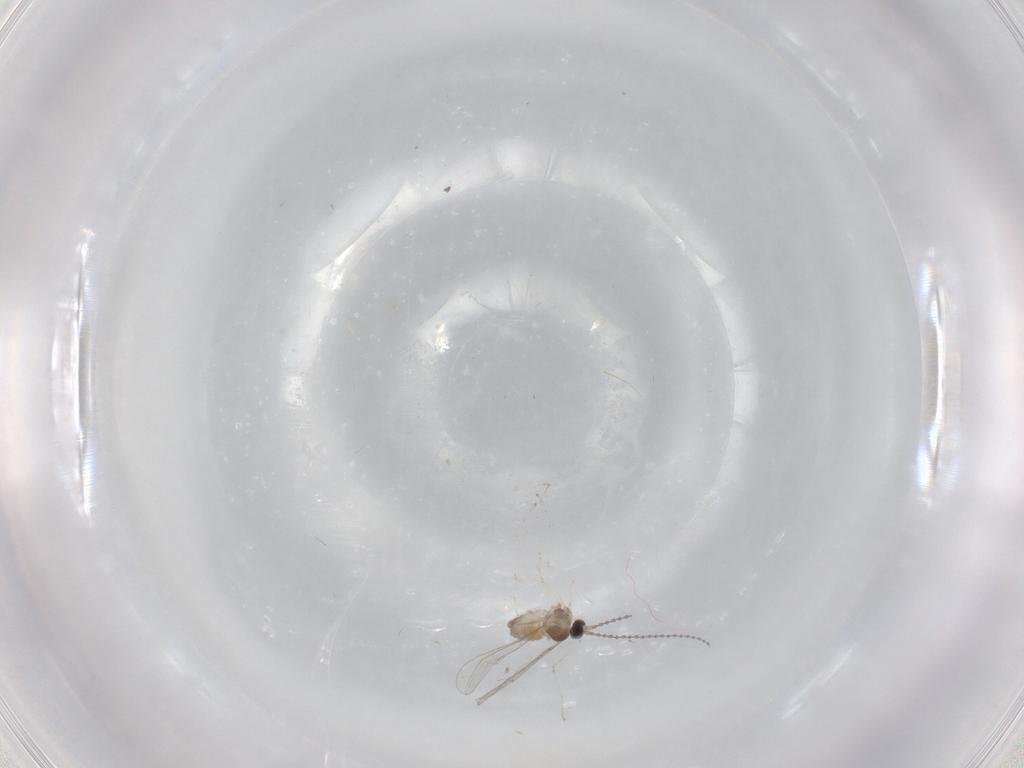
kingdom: Animalia
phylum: Arthropoda
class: Insecta
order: Diptera
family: Cecidomyiidae
